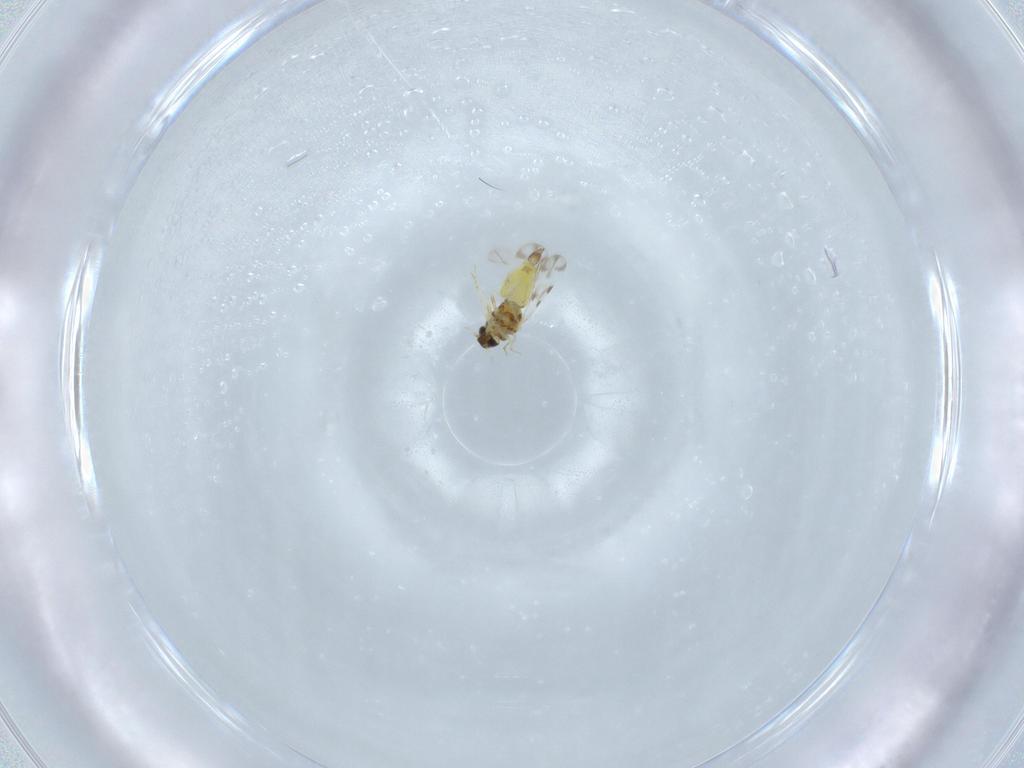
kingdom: Animalia
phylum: Arthropoda
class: Insecta
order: Hemiptera
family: Aleyrodidae
